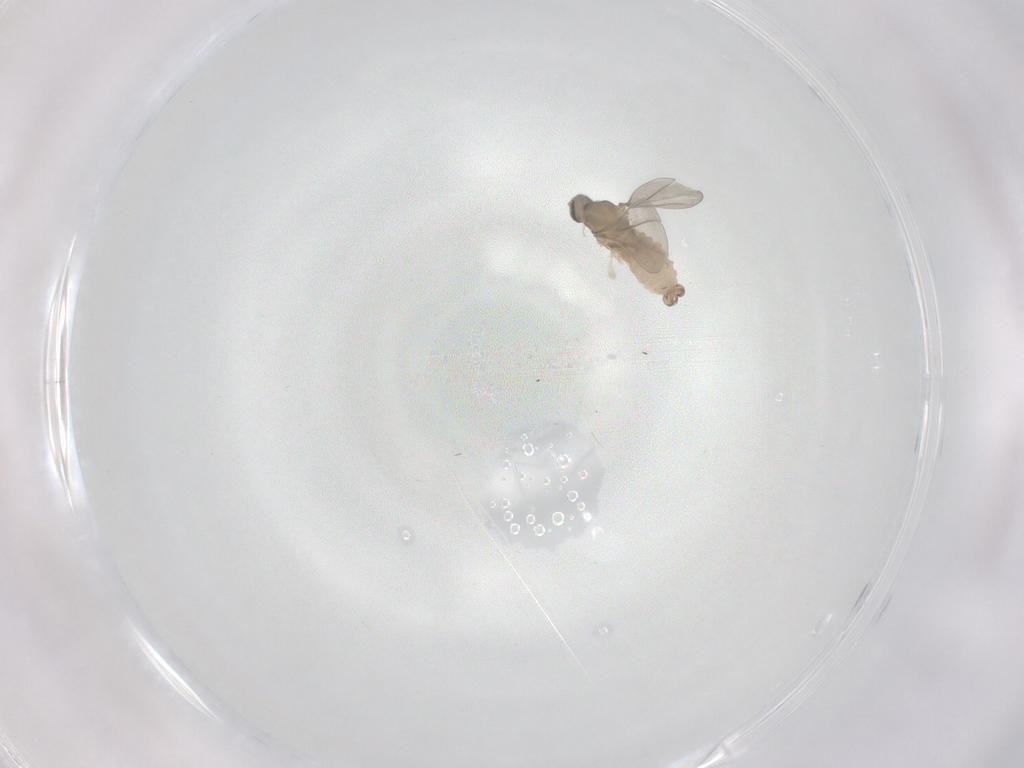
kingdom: Animalia
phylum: Arthropoda
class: Insecta
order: Diptera
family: Cecidomyiidae
